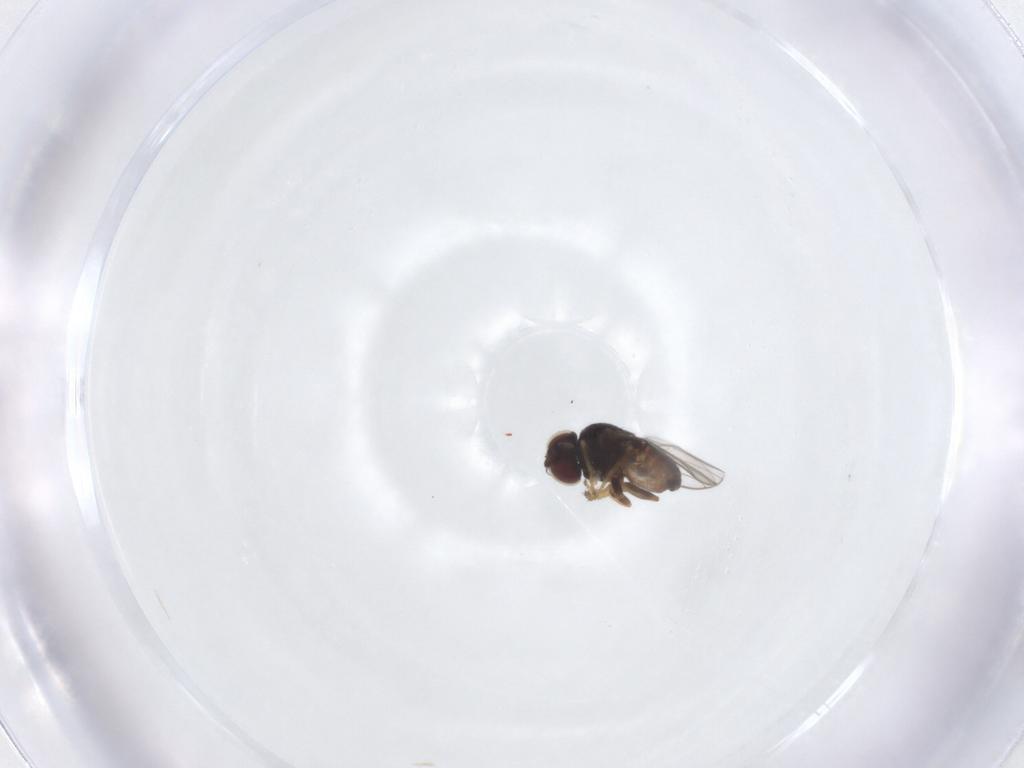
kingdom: Animalia
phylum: Arthropoda
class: Insecta
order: Diptera
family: Chloropidae
